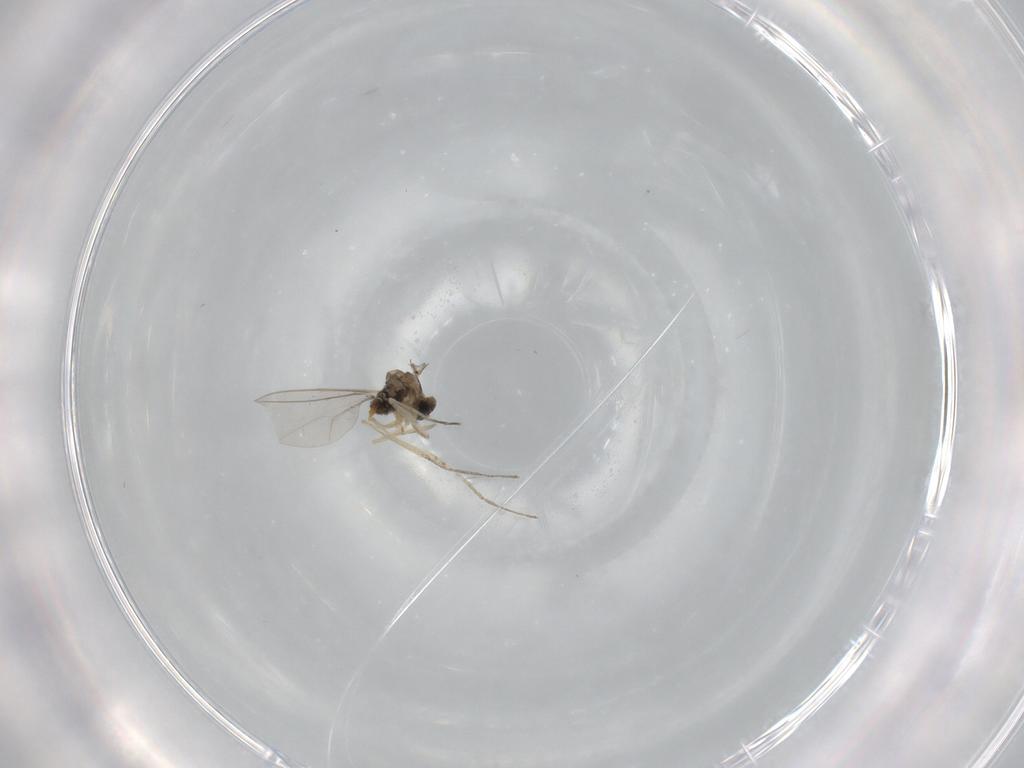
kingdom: Animalia
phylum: Arthropoda
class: Insecta
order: Diptera
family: Cecidomyiidae
